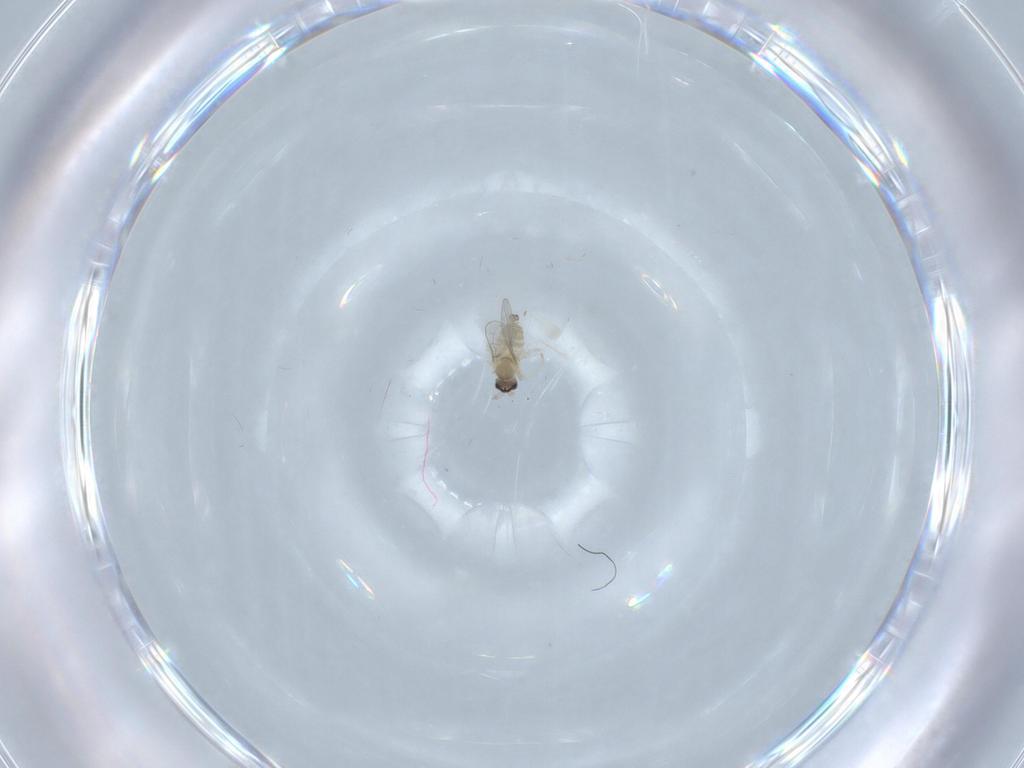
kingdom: Animalia
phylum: Arthropoda
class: Insecta
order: Diptera
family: Cecidomyiidae
